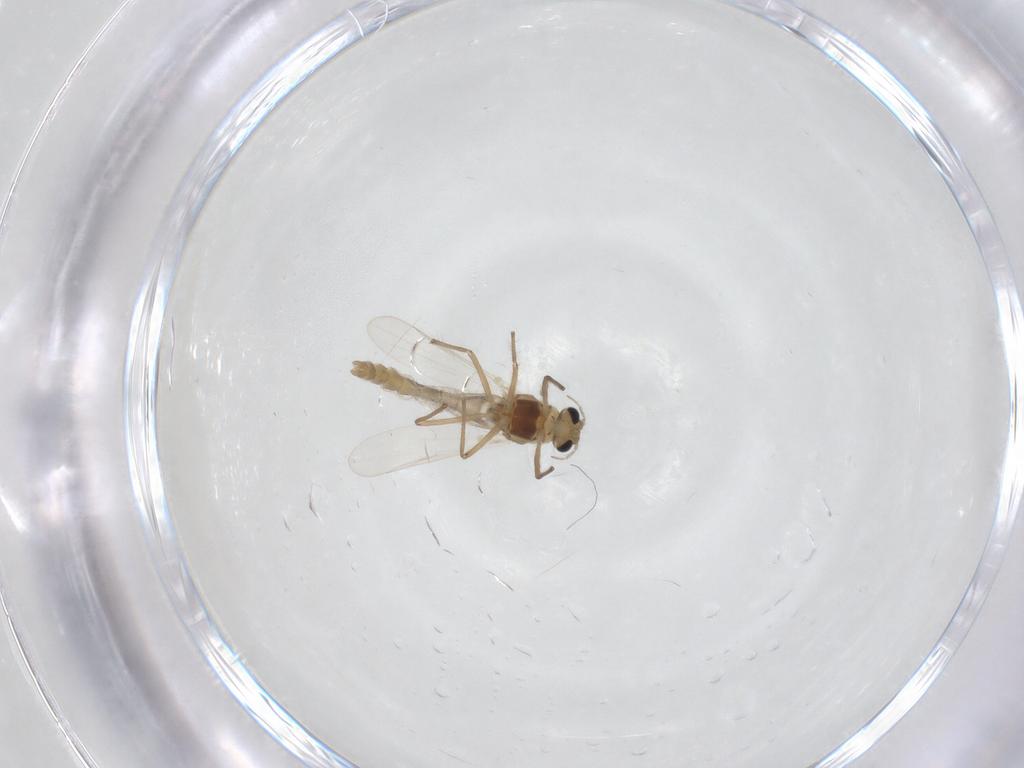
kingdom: Animalia
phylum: Arthropoda
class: Insecta
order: Diptera
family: Chironomidae
